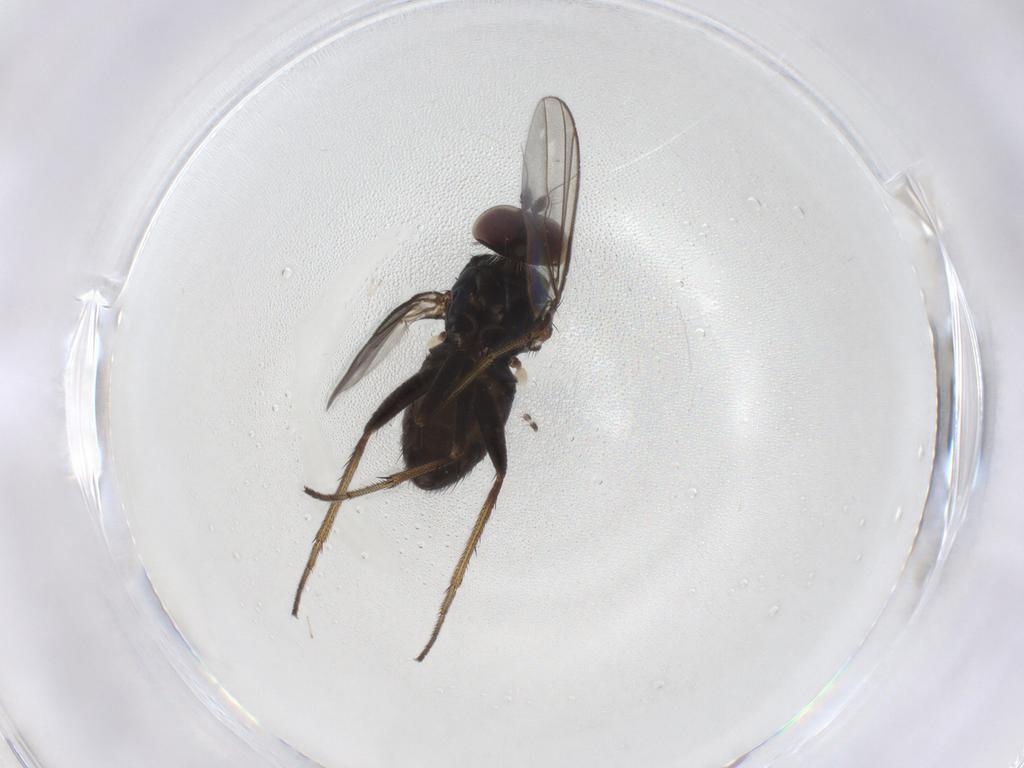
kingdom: Animalia
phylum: Arthropoda
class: Insecta
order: Diptera
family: Dolichopodidae
